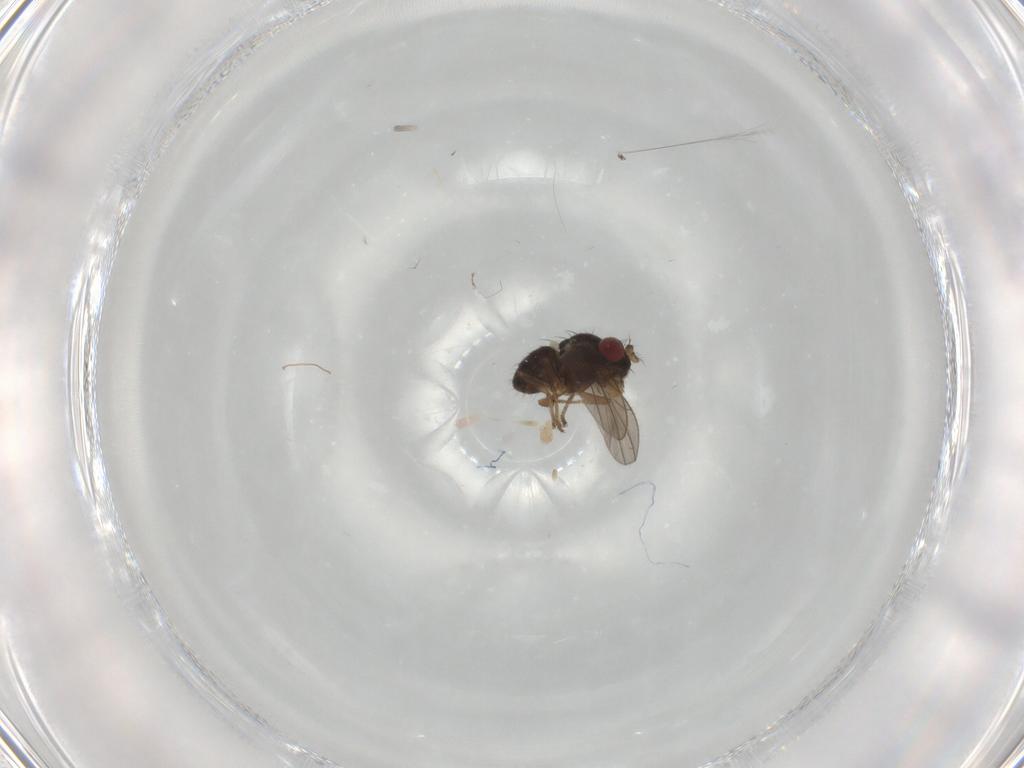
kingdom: Animalia
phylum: Arthropoda
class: Insecta
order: Diptera
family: Ephydridae
